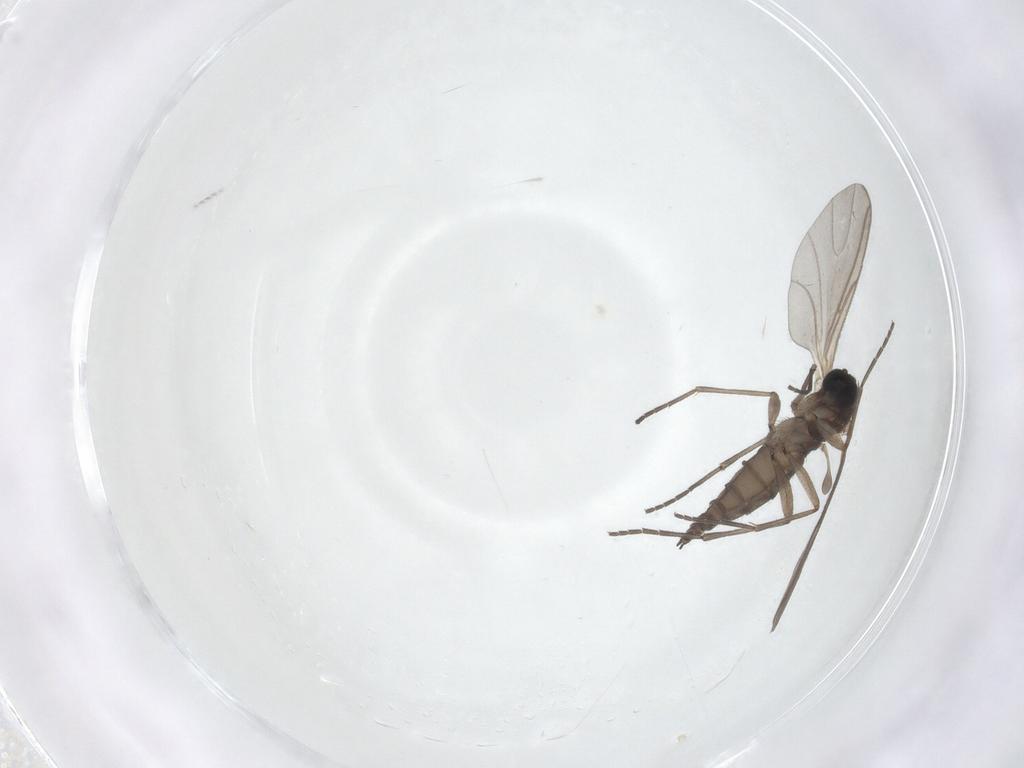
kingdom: Animalia
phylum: Arthropoda
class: Insecta
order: Diptera
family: Sciaridae
